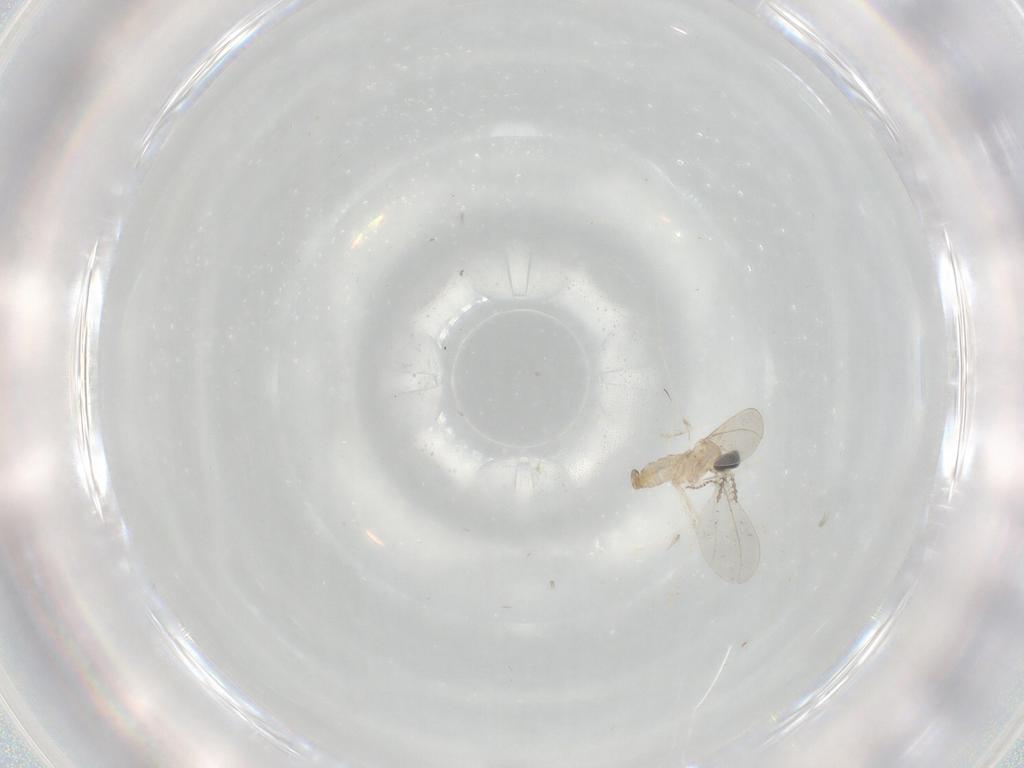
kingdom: Animalia
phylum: Arthropoda
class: Insecta
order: Diptera
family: Cecidomyiidae
